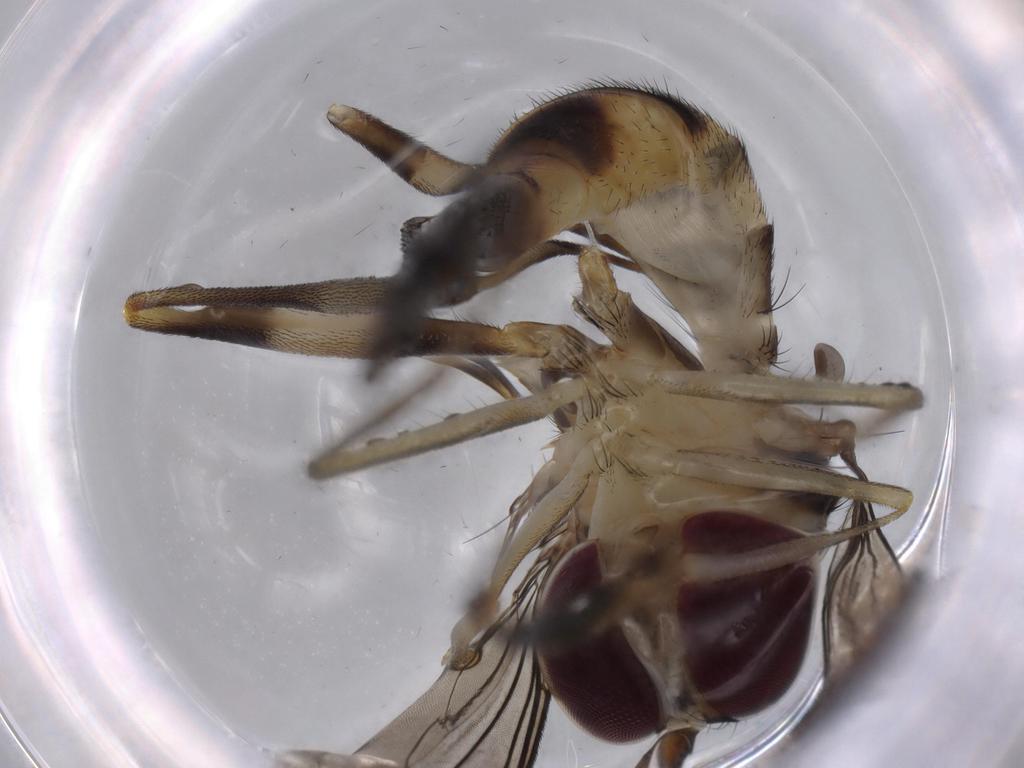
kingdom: Animalia
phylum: Arthropoda
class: Insecta
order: Diptera
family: Cecidomyiidae
